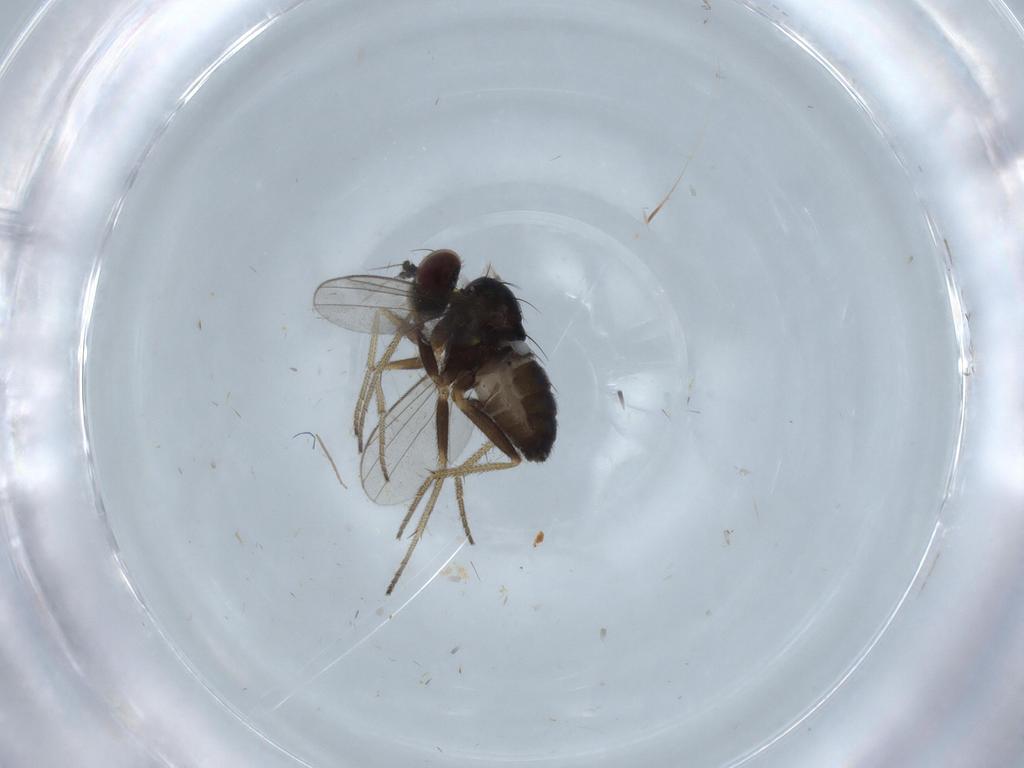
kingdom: Animalia
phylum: Arthropoda
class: Insecta
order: Diptera
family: Chironomidae
